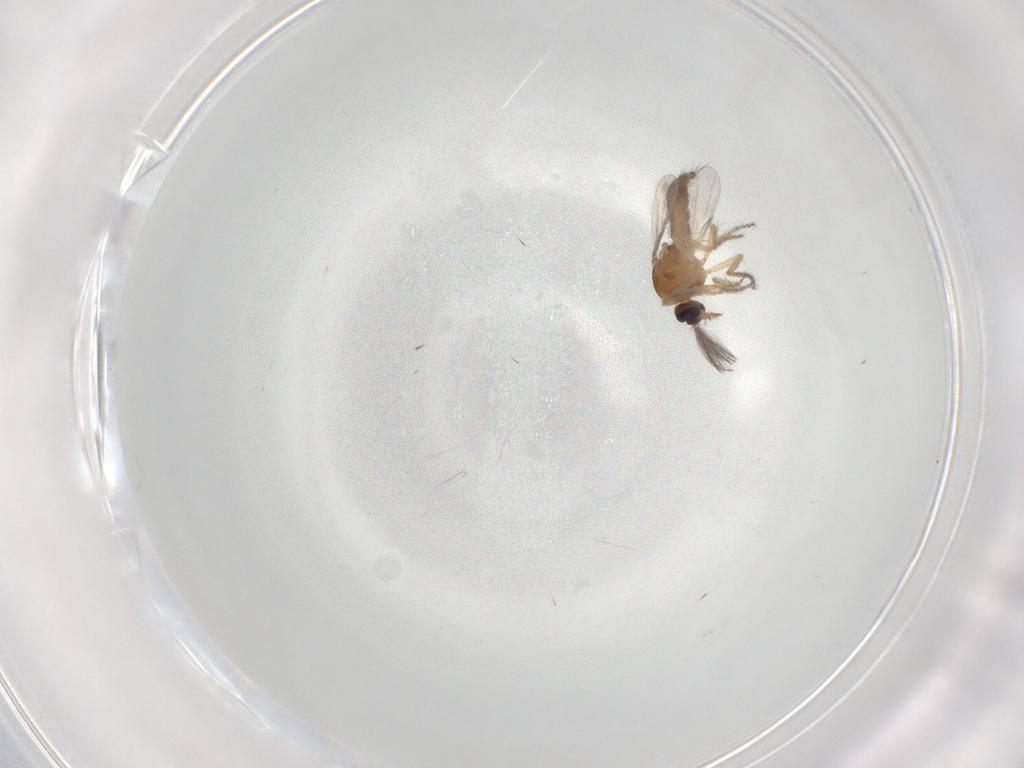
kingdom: Animalia
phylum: Arthropoda
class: Insecta
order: Diptera
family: Ceratopogonidae
